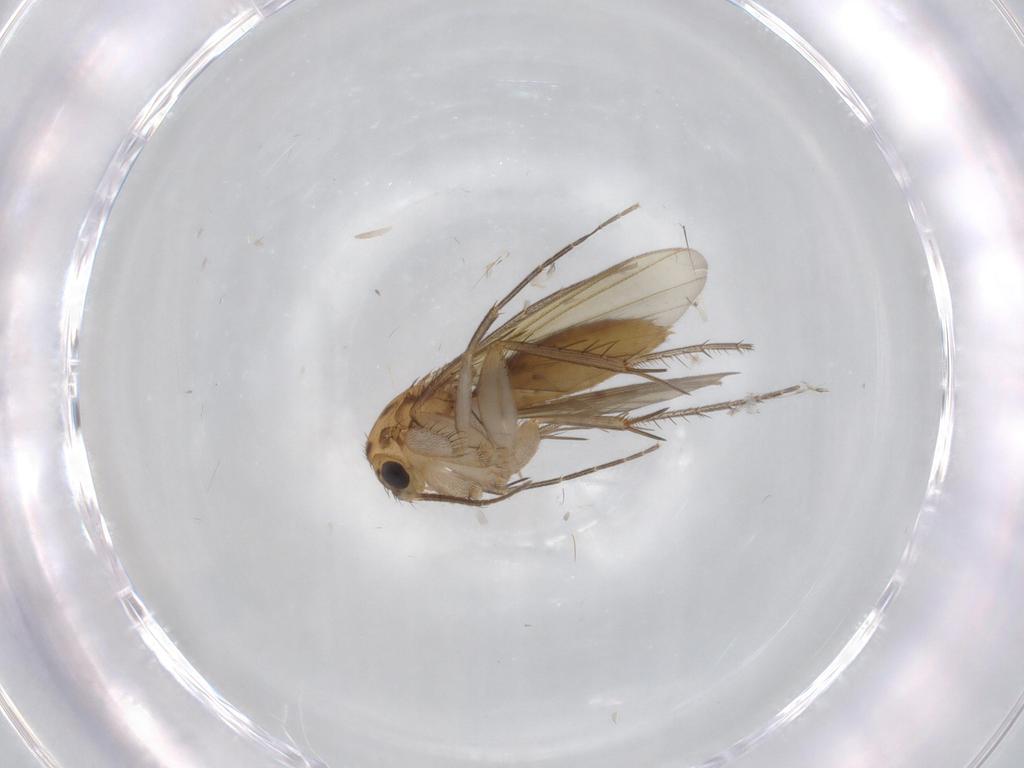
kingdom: Animalia
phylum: Arthropoda
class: Insecta
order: Diptera
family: Mycetophilidae
